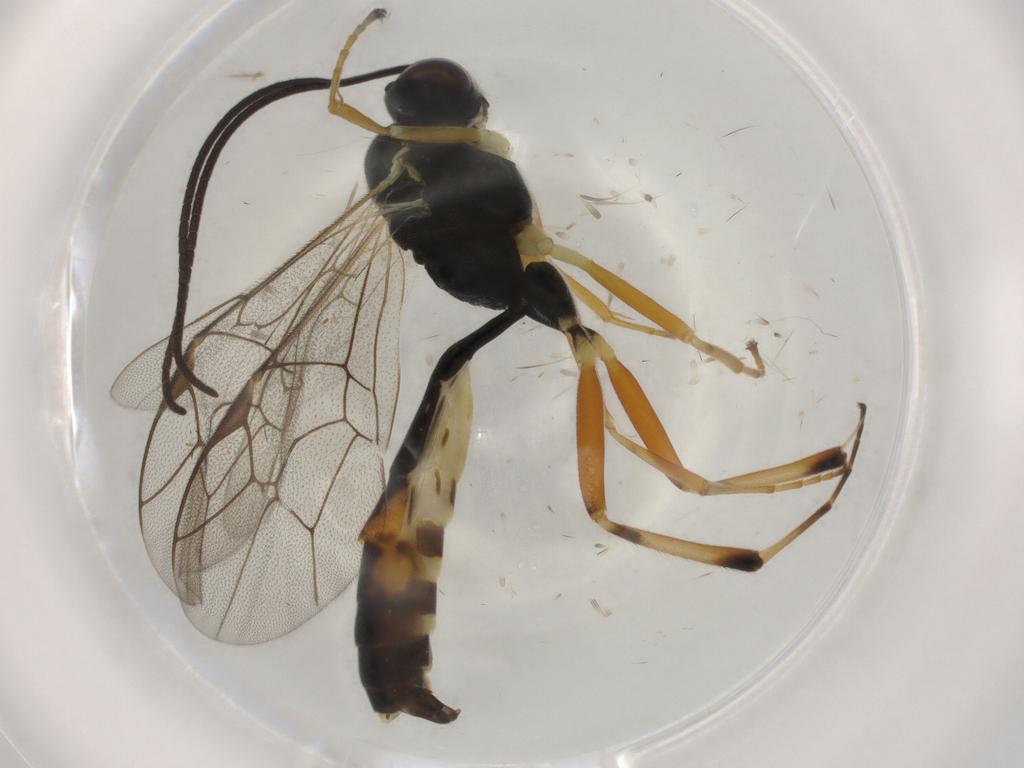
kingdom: Animalia
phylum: Arthropoda
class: Insecta
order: Hymenoptera
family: Ichneumonidae
